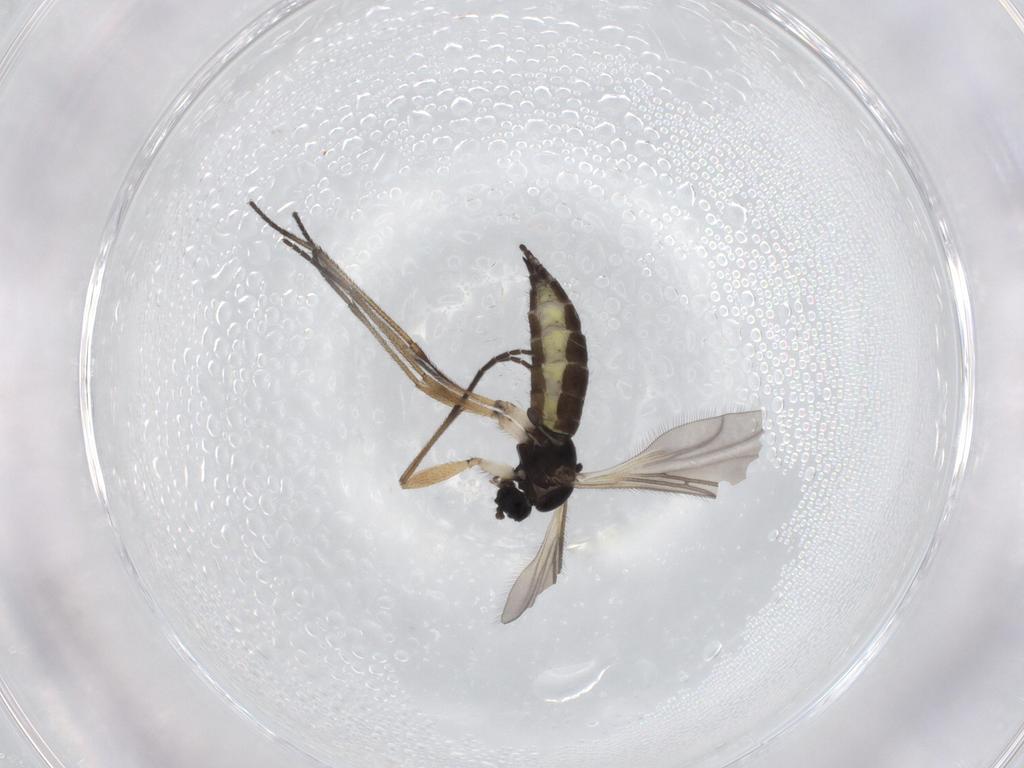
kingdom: Animalia
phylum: Arthropoda
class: Insecta
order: Diptera
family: Sciaridae
